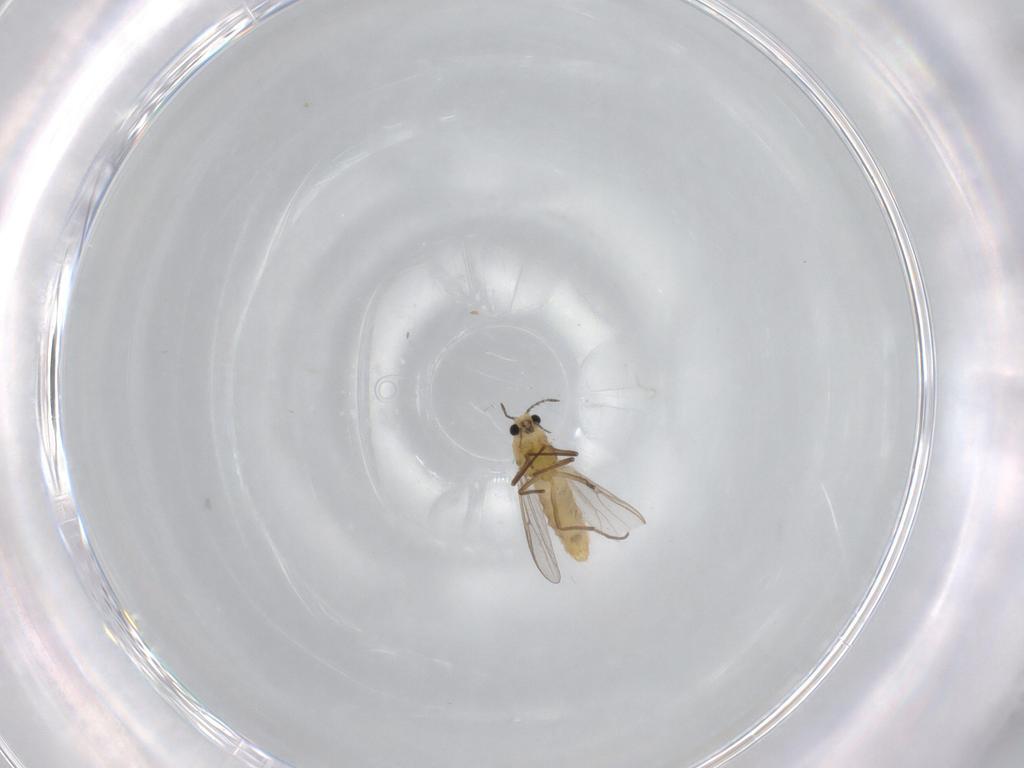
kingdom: Animalia
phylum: Arthropoda
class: Insecta
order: Diptera
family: Chironomidae
